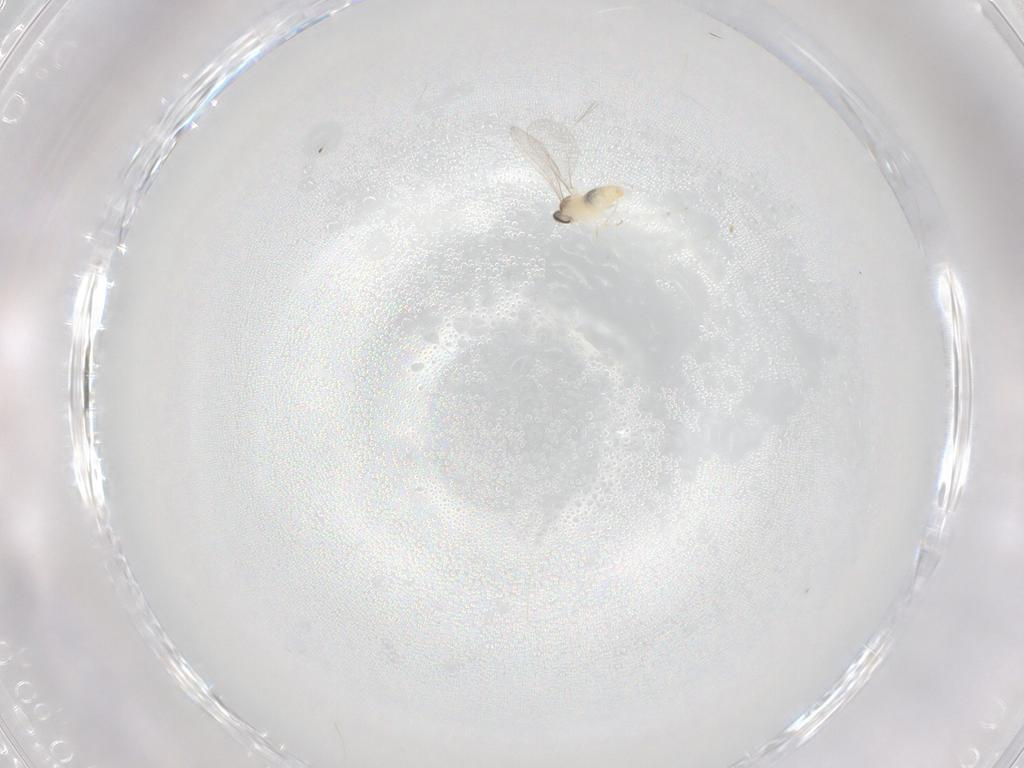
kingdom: Animalia
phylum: Arthropoda
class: Insecta
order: Diptera
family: Cecidomyiidae
